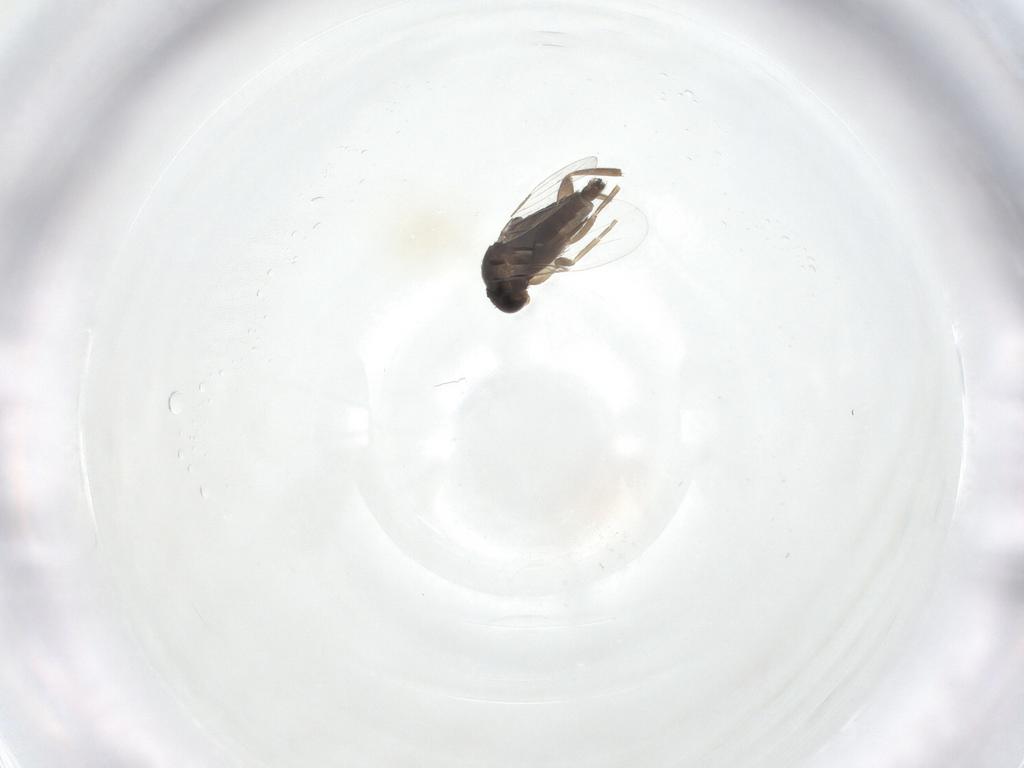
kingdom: Animalia
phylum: Arthropoda
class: Insecta
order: Diptera
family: Phoridae
